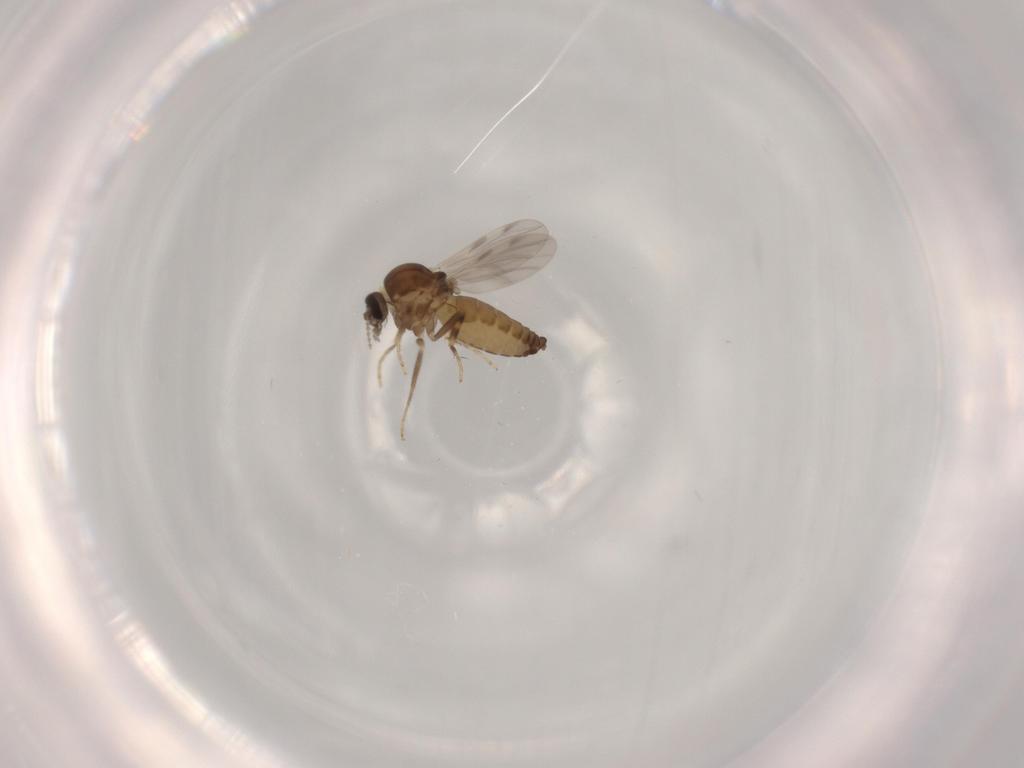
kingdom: Animalia
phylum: Arthropoda
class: Insecta
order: Diptera
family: Ceratopogonidae
